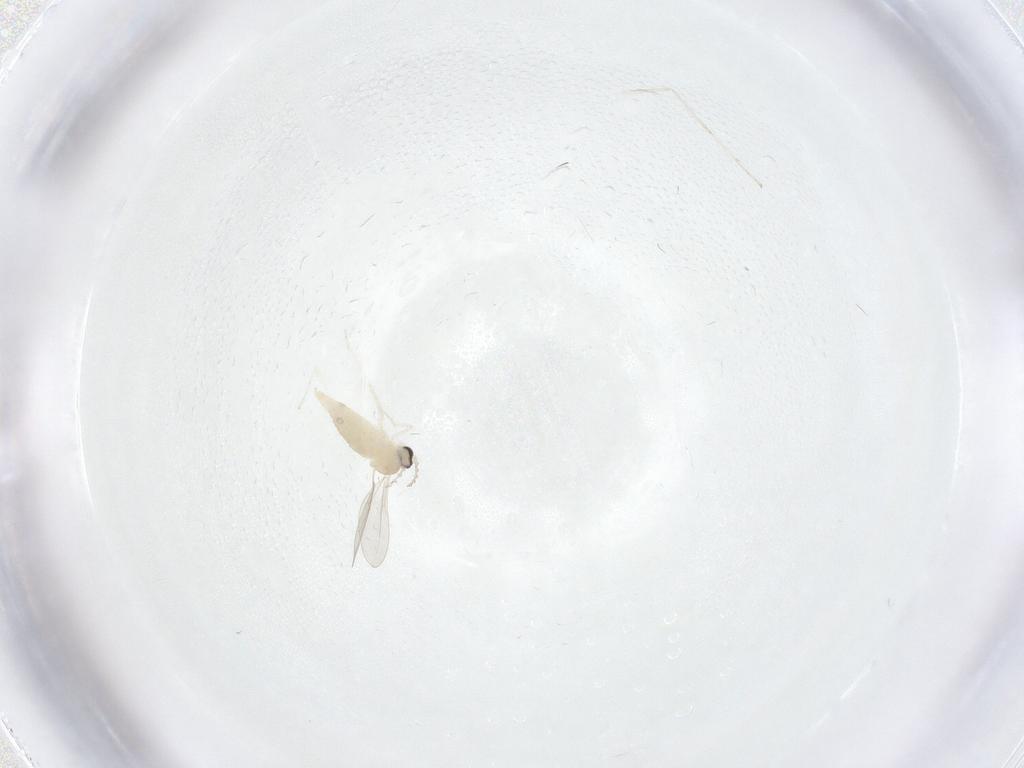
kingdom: Animalia
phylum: Arthropoda
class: Insecta
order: Diptera
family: Cecidomyiidae
